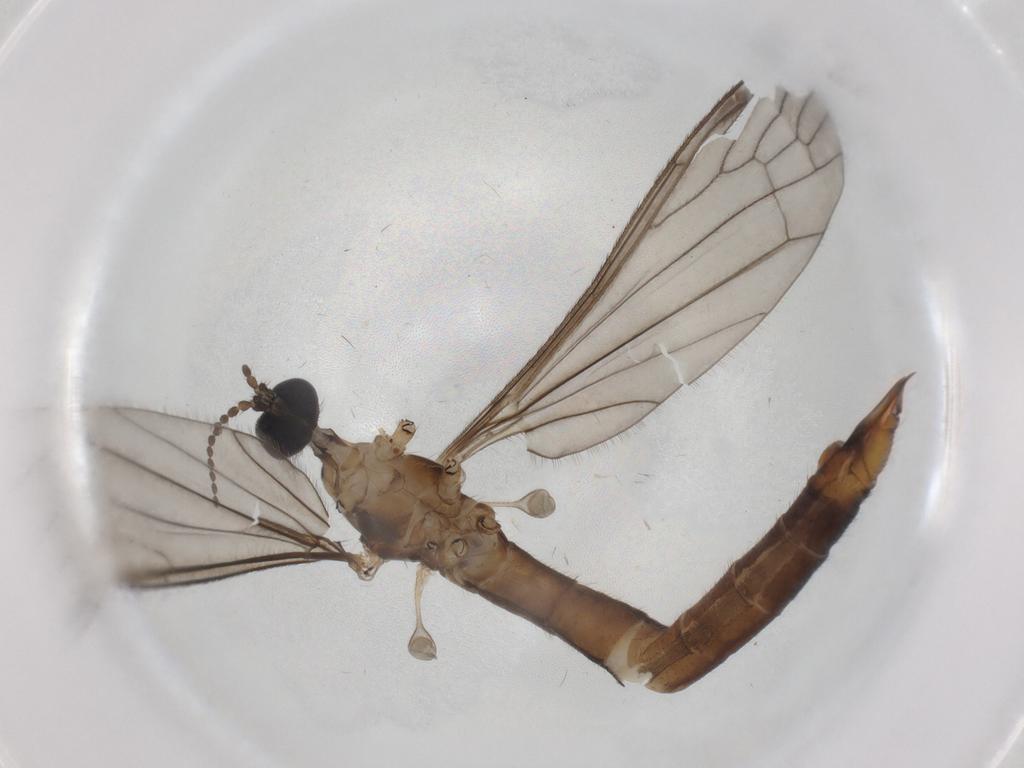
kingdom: Animalia
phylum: Arthropoda
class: Insecta
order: Diptera
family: Limoniidae
